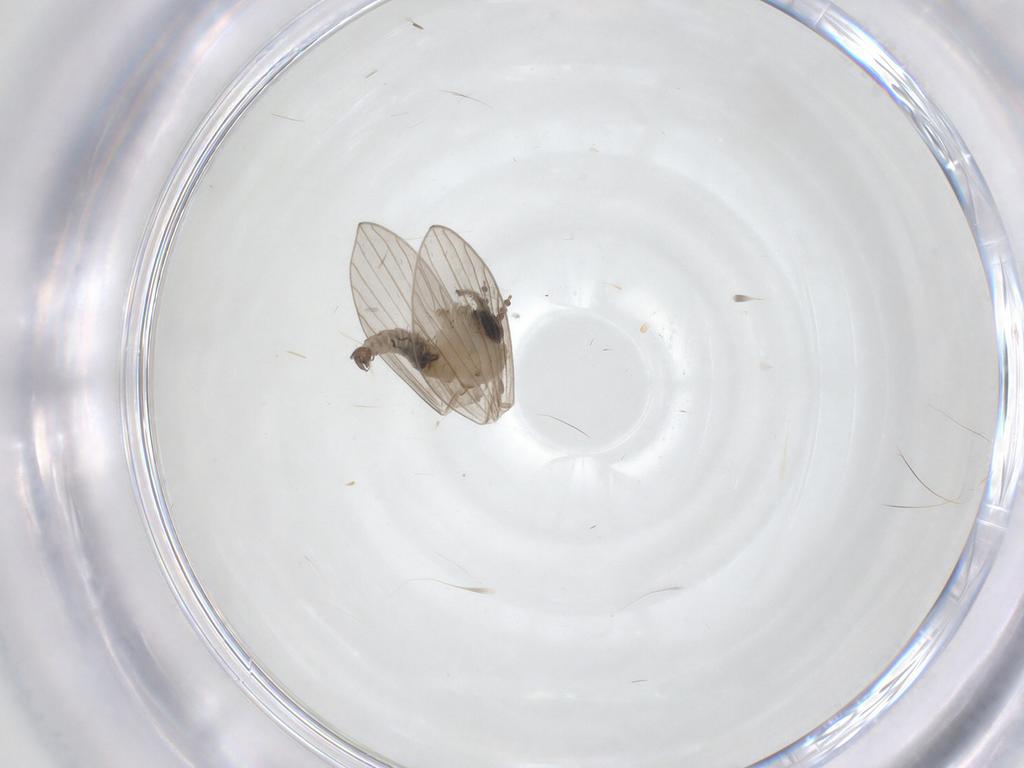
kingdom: Animalia
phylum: Arthropoda
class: Insecta
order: Diptera
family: Psychodidae
